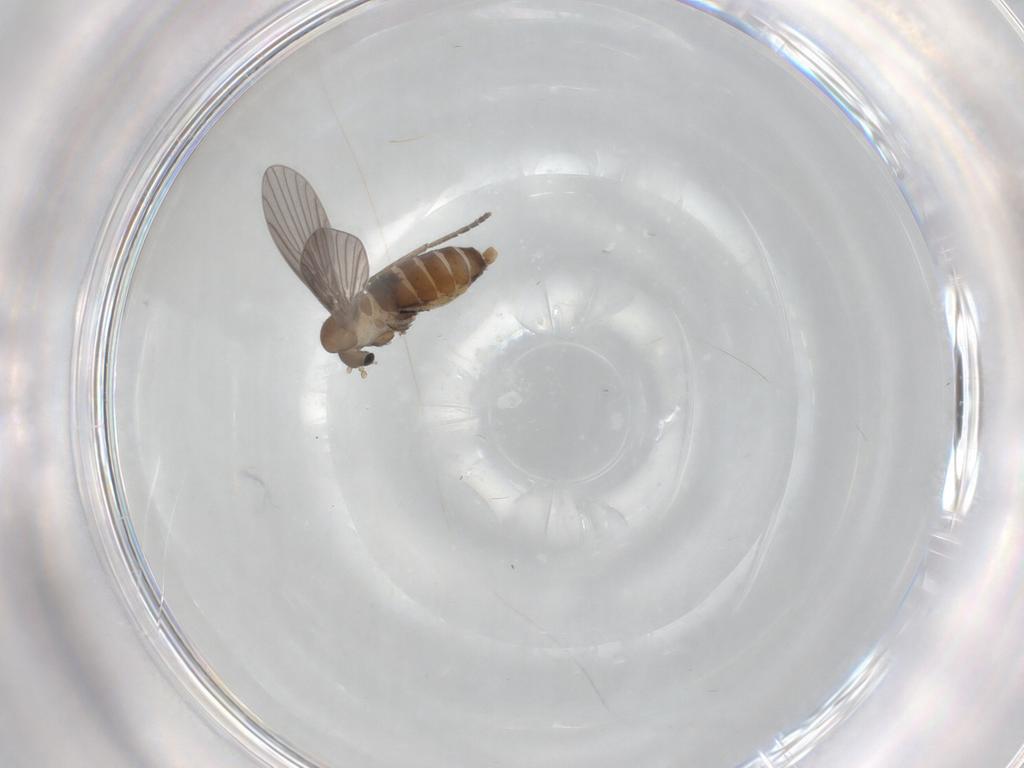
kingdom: Animalia
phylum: Arthropoda
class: Insecta
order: Diptera
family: Psychodidae
